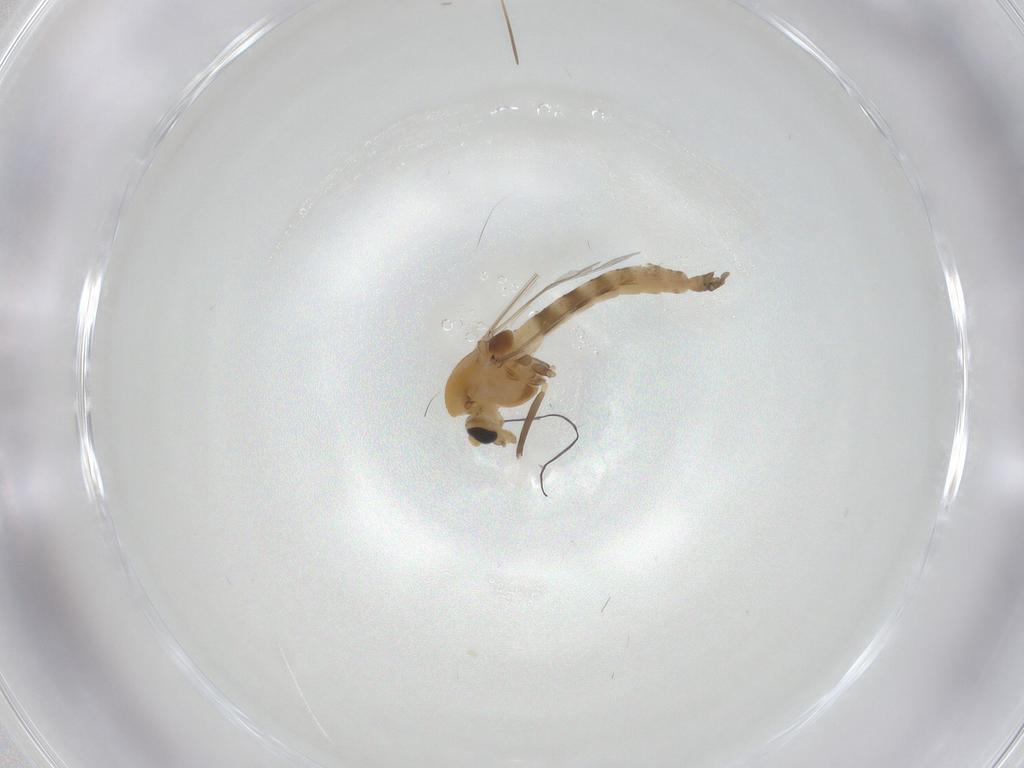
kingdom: Animalia
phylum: Arthropoda
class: Insecta
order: Diptera
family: Chironomidae
